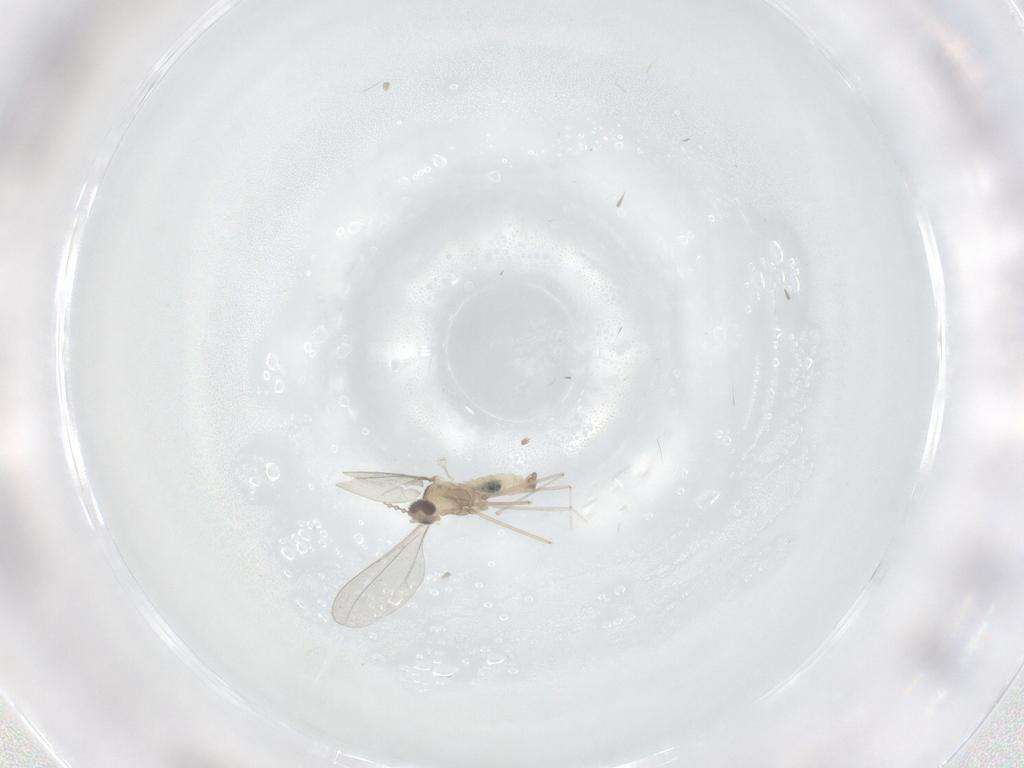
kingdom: Animalia
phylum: Arthropoda
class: Insecta
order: Diptera
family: Cecidomyiidae
